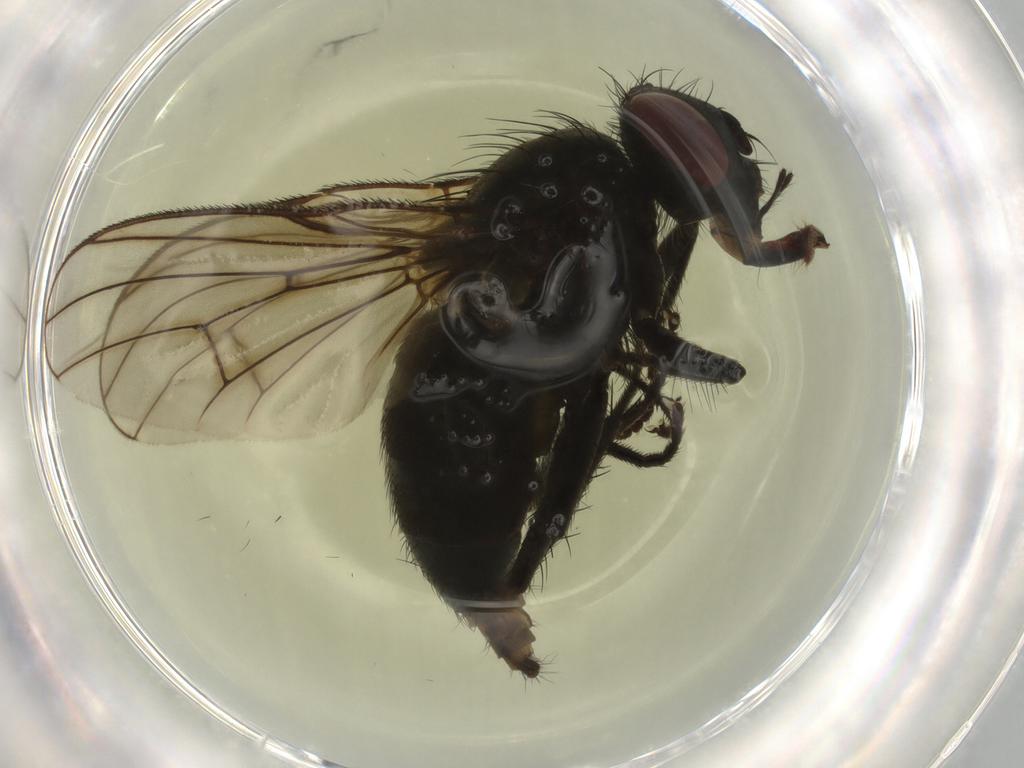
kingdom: Animalia
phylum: Arthropoda
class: Insecta
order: Diptera
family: Muscidae
